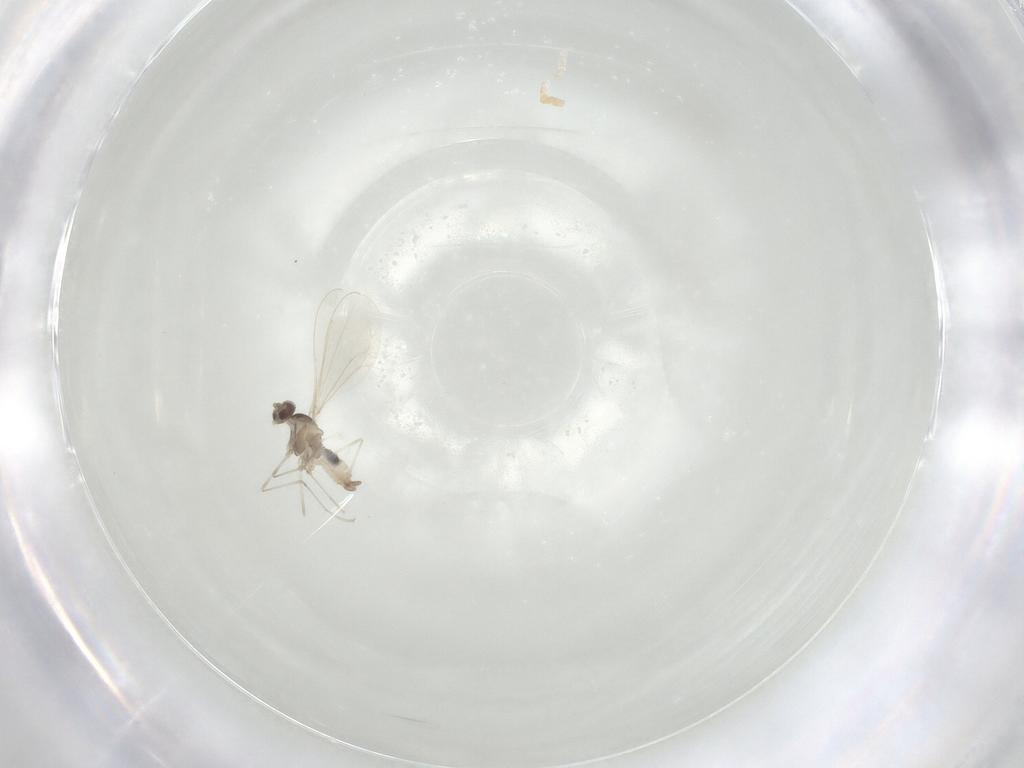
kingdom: Animalia
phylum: Arthropoda
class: Insecta
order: Diptera
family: Cecidomyiidae
